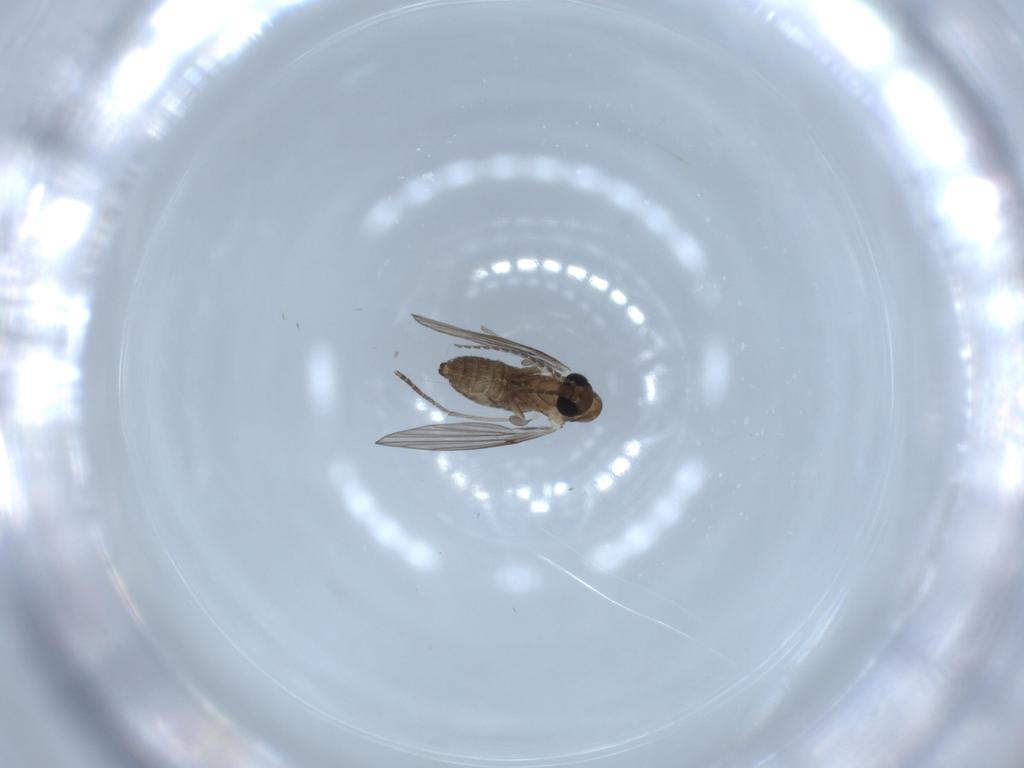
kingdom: Animalia
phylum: Arthropoda
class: Insecta
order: Diptera
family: Psychodidae
